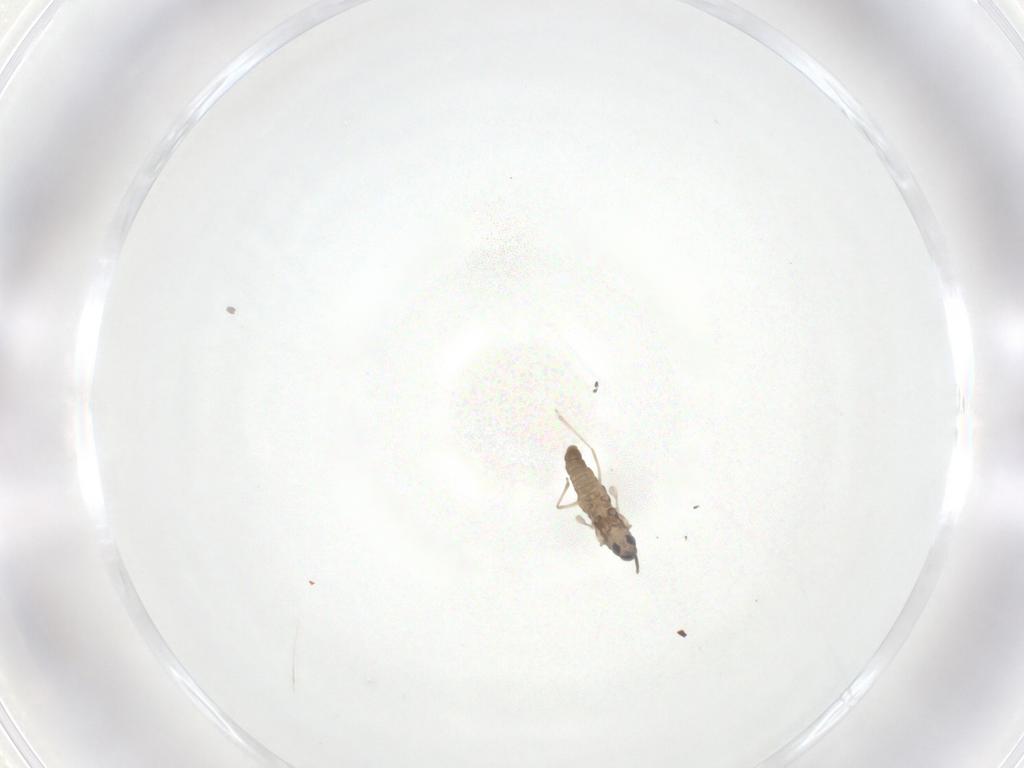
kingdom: Animalia
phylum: Arthropoda
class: Insecta
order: Diptera
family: Cecidomyiidae
